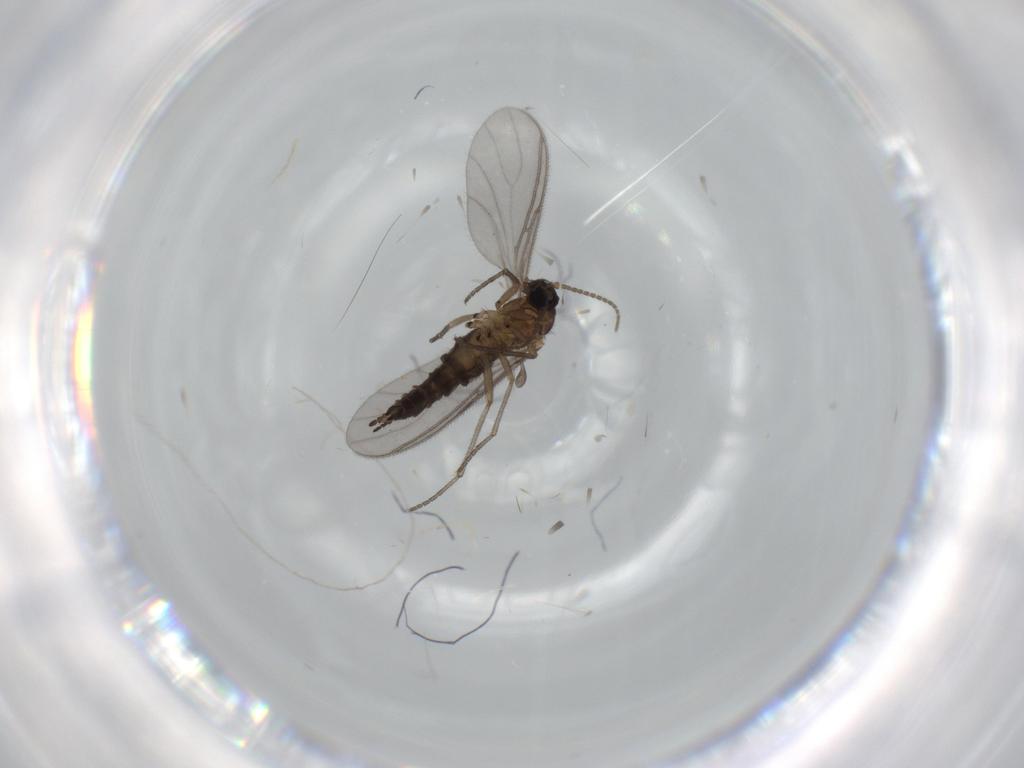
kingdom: Animalia
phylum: Arthropoda
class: Insecta
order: Diptera
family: Sciaridae
